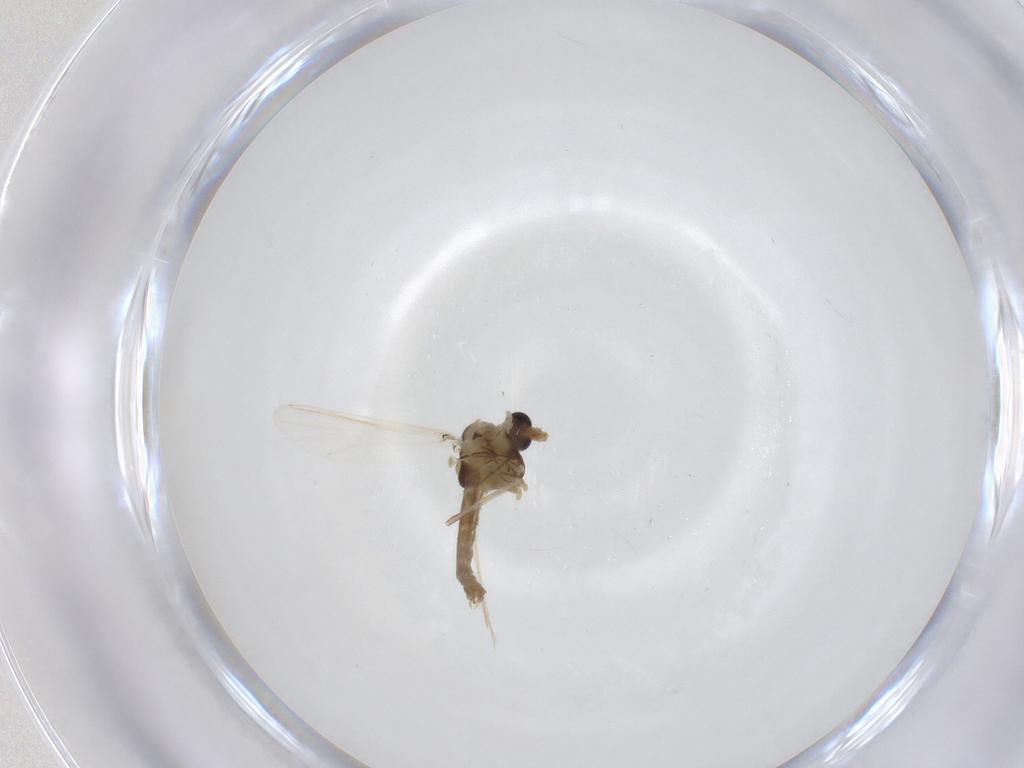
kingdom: Animalia
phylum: Arthropoda
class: Insecta
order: Diptera
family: Chironomidae
